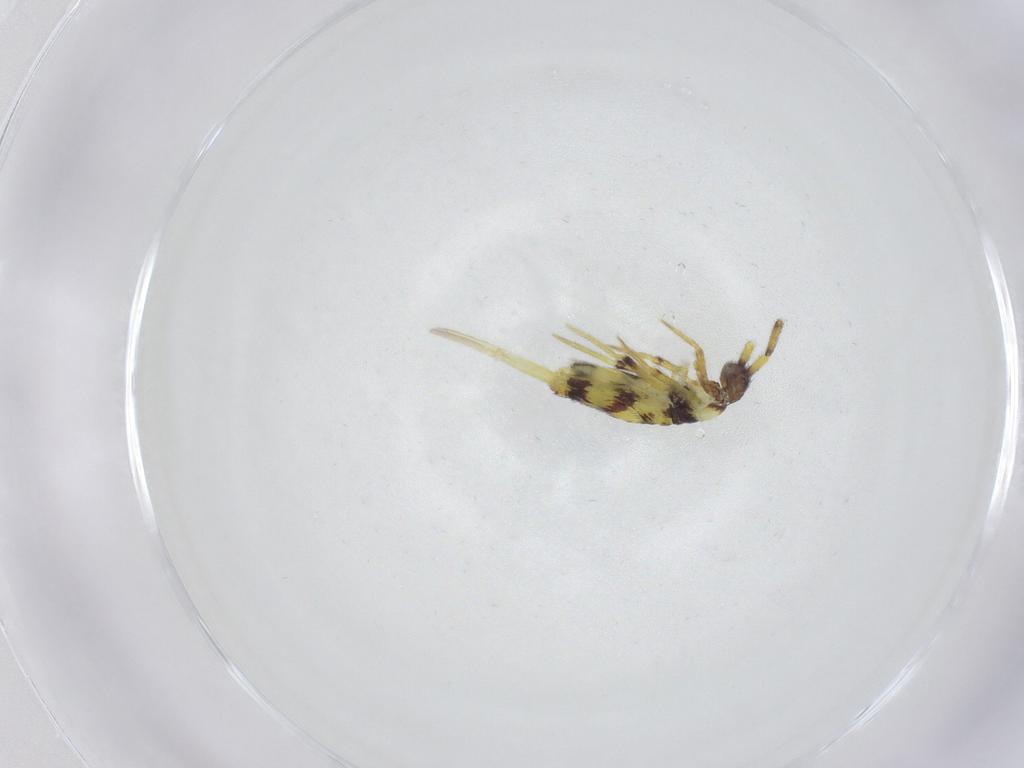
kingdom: Animalia
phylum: Arthropoda
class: Collembola
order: Entomobryomorpha
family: Entomobryidae
